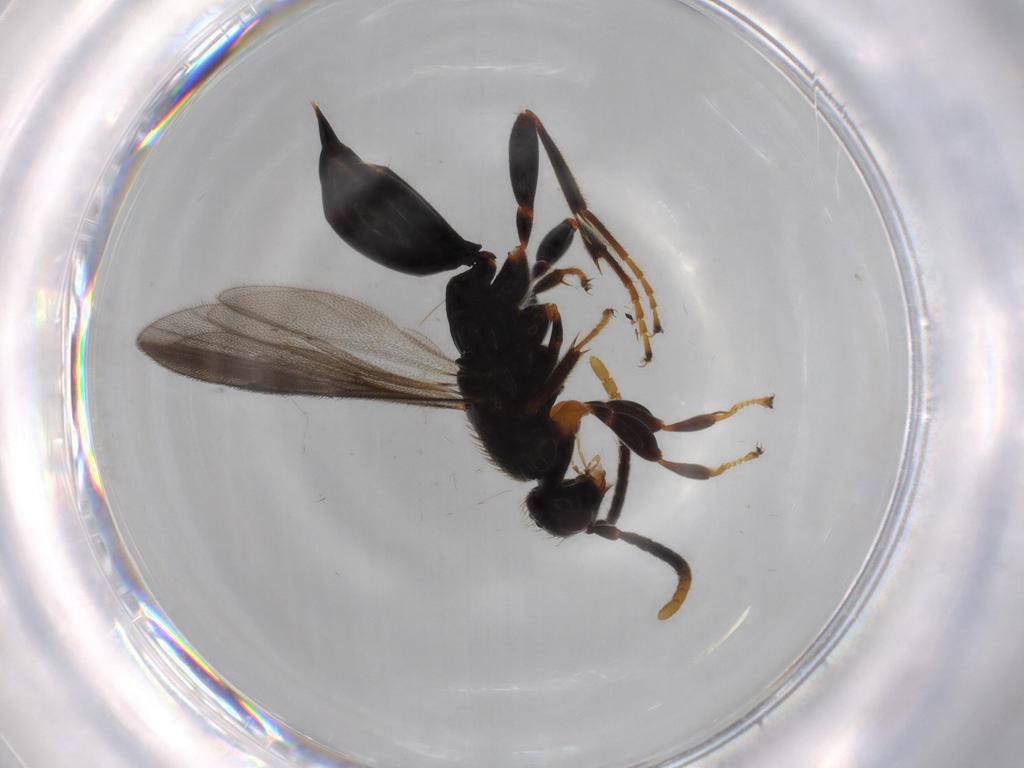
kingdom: Animalia
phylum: Arthropoda
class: Insecta
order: Hymenoptera
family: Proctotrupidae
